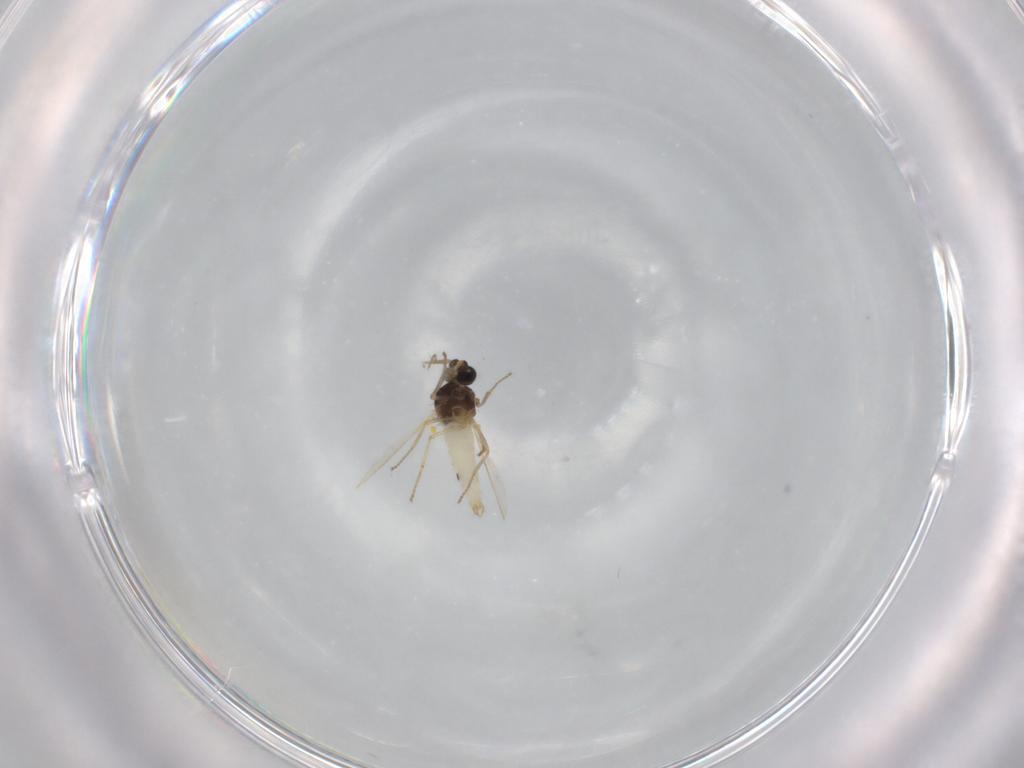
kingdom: Animalia
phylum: Arthropoda
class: Insecta
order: Diptera
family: Ceratopogonidae
